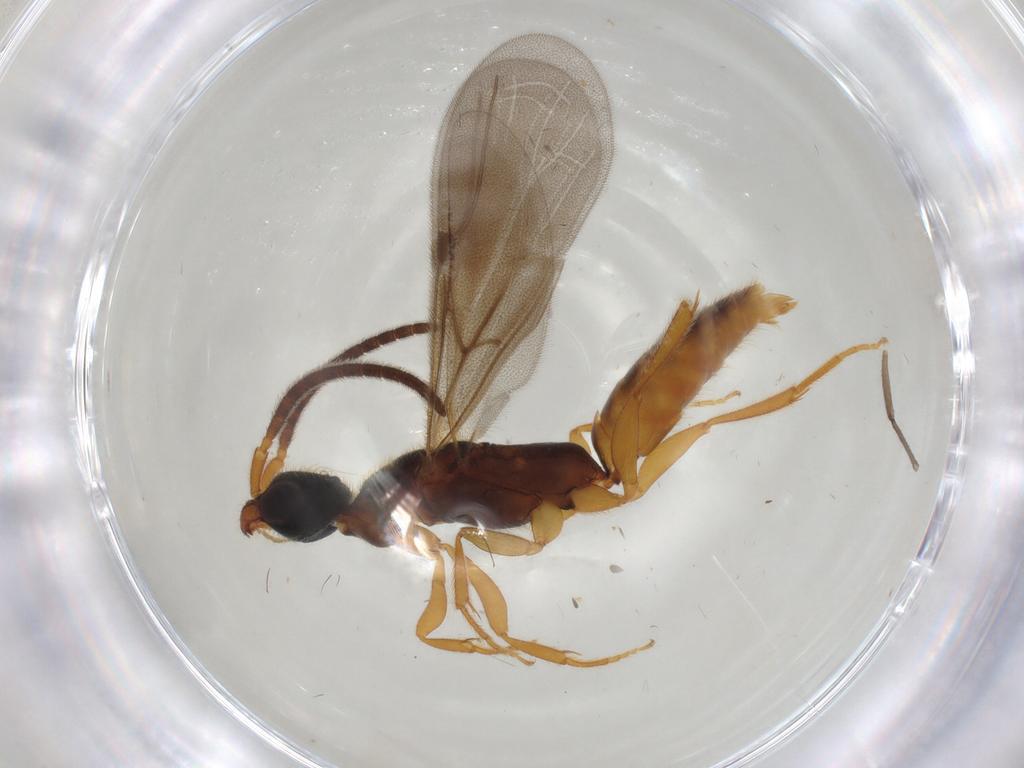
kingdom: Animalia
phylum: Arthropoda
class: Insecta
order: Hymenoptera
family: Bethylidae
